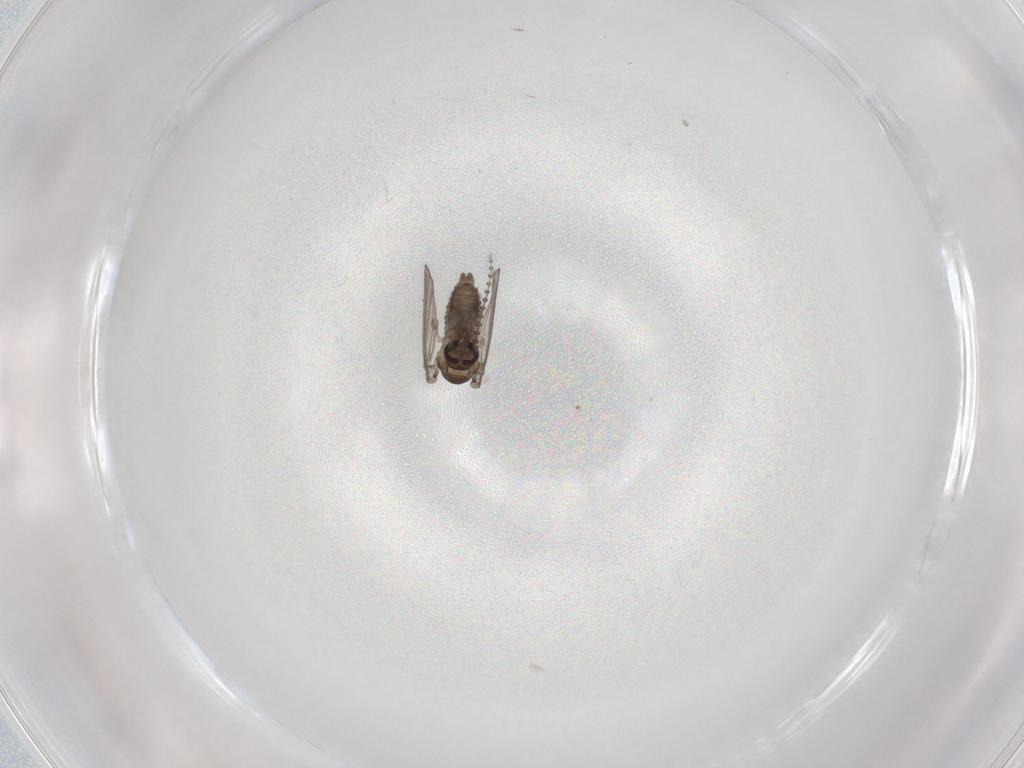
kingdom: Animalia
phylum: Arthropoda
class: Insecta
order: Diptera
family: Psychodidae
